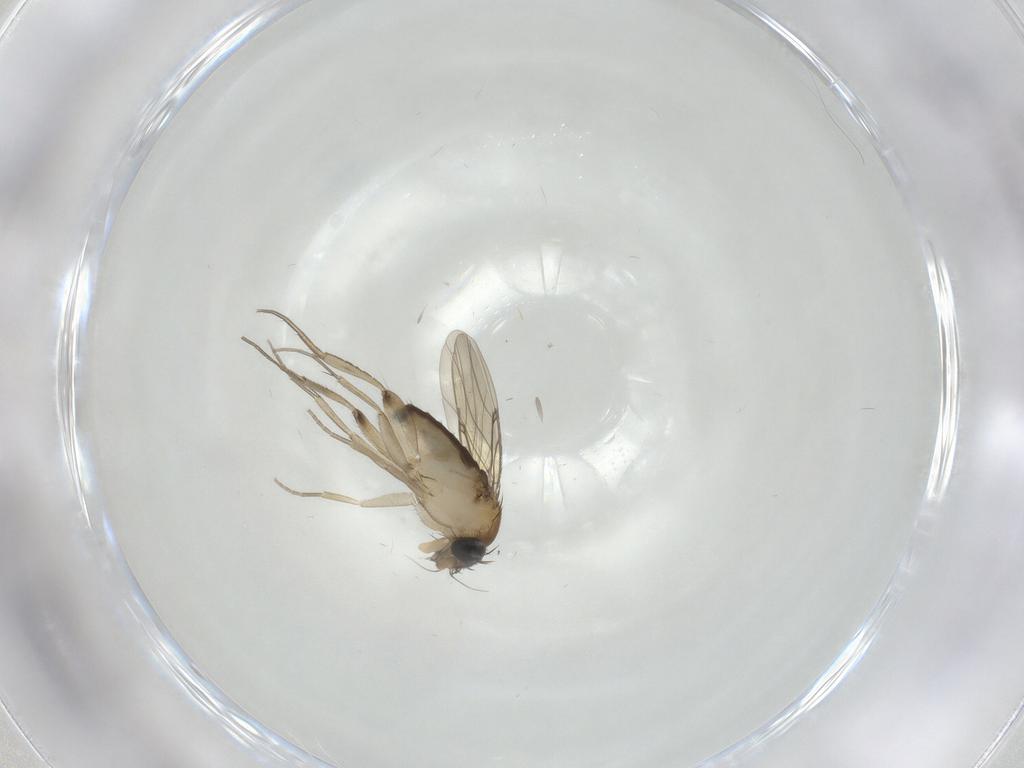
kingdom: Animalia
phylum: Arthropoda
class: Insecta
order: Diptera
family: Phoridae
